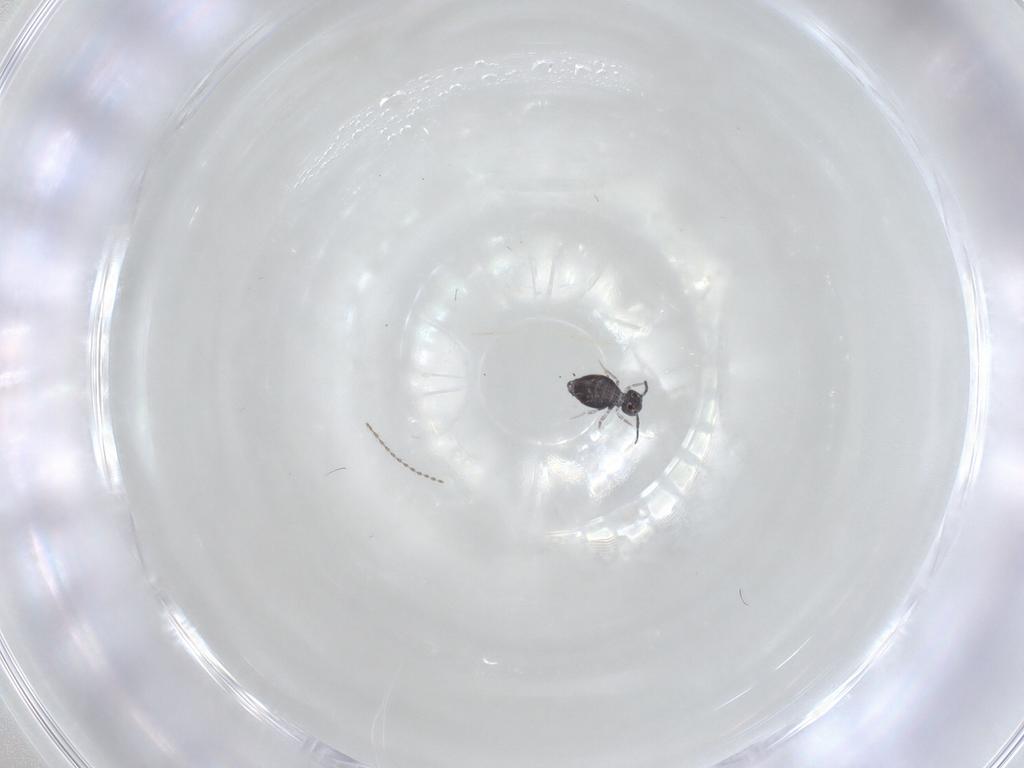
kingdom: Animalia
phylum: Arthropoda
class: Collembola
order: Symphypleona
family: Katiannidae
